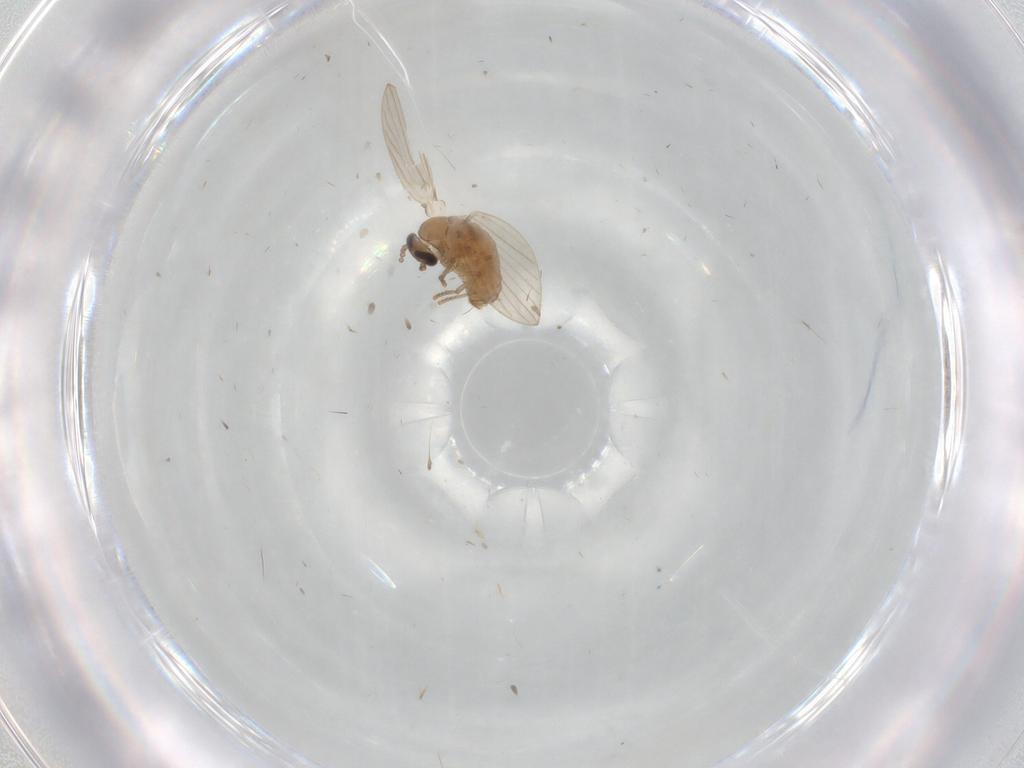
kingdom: Animalia
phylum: Arthropoda
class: Insecta
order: Diptera
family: Psychodidae
